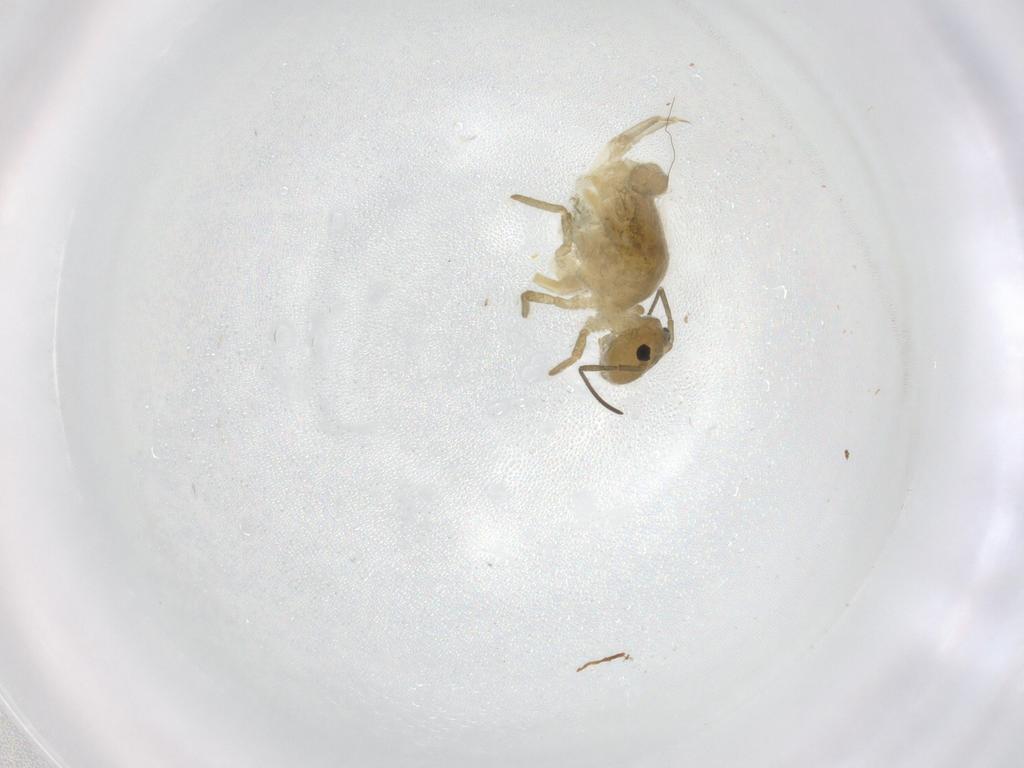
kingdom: Animalia
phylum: Arthropoda
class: Collembola
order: Symphypleona
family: Sminthuridae
